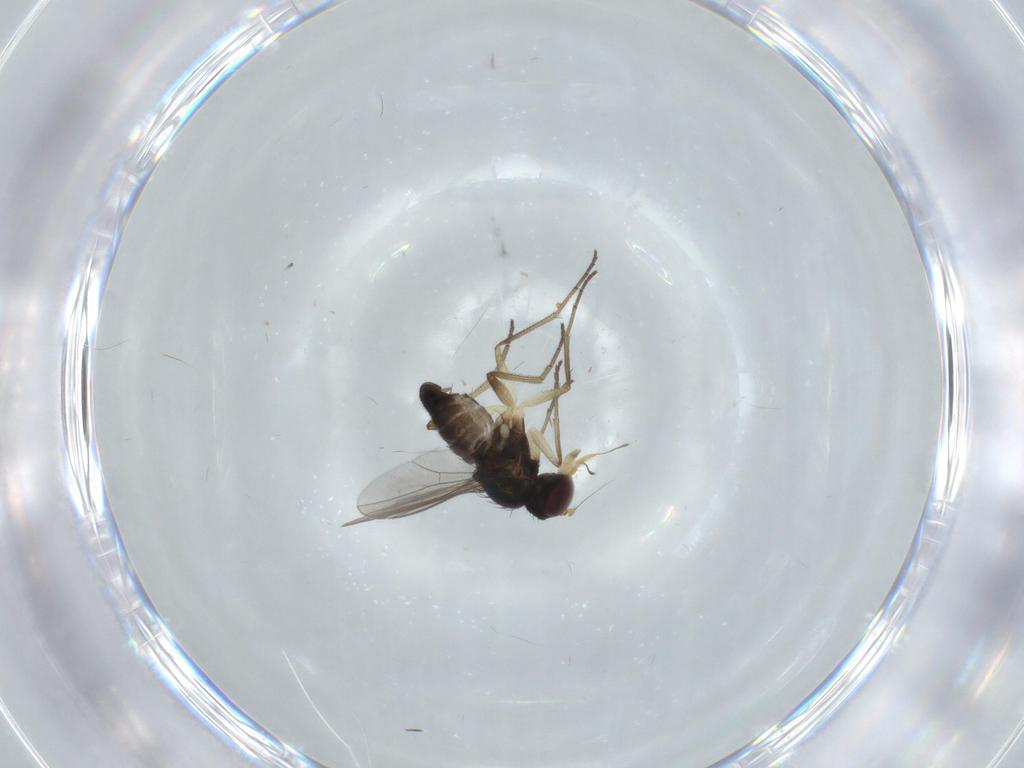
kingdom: Animalia
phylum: Arthropoda
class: Insecta
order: Diptera
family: Dolichopodidae
